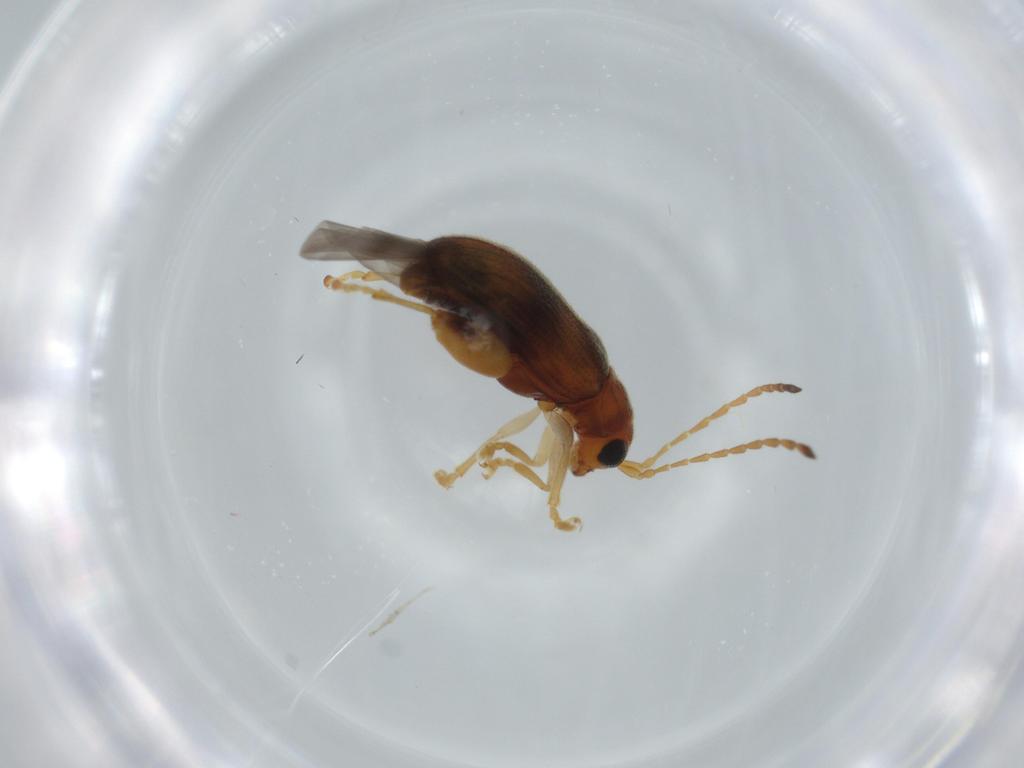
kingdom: Animalia
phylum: Arthropoda
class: Insecta
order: Coleoptera
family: Chrysomelidae
